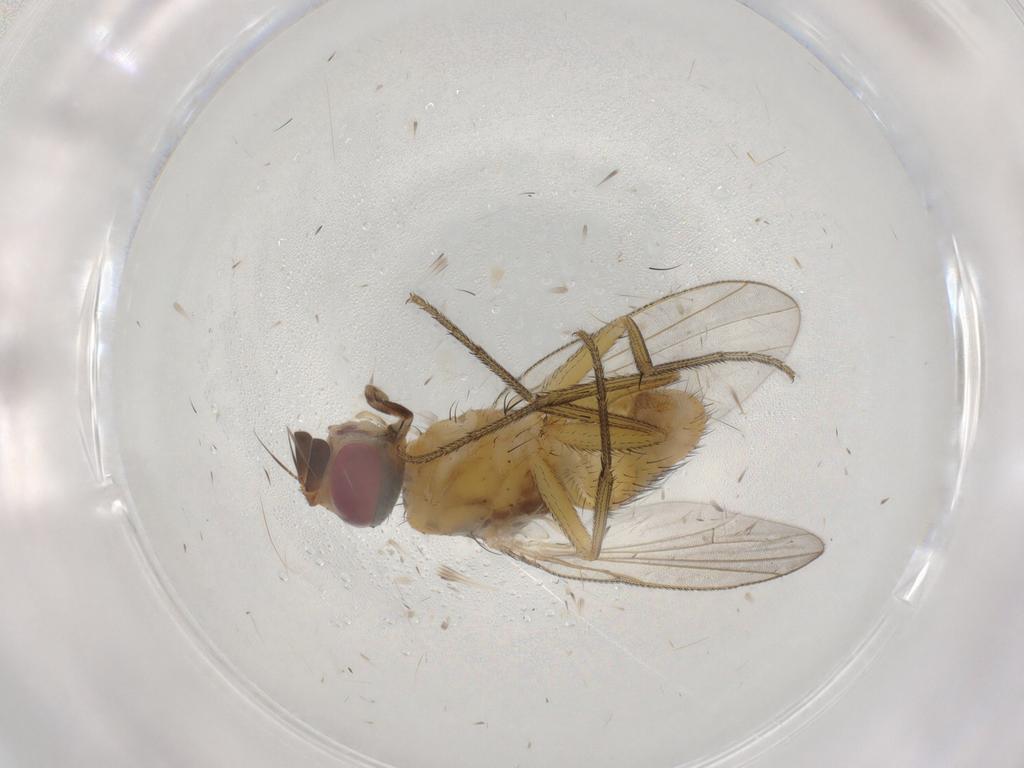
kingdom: Animalia
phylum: Arthropoda
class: Insecta
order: Diptera
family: Muscidae
